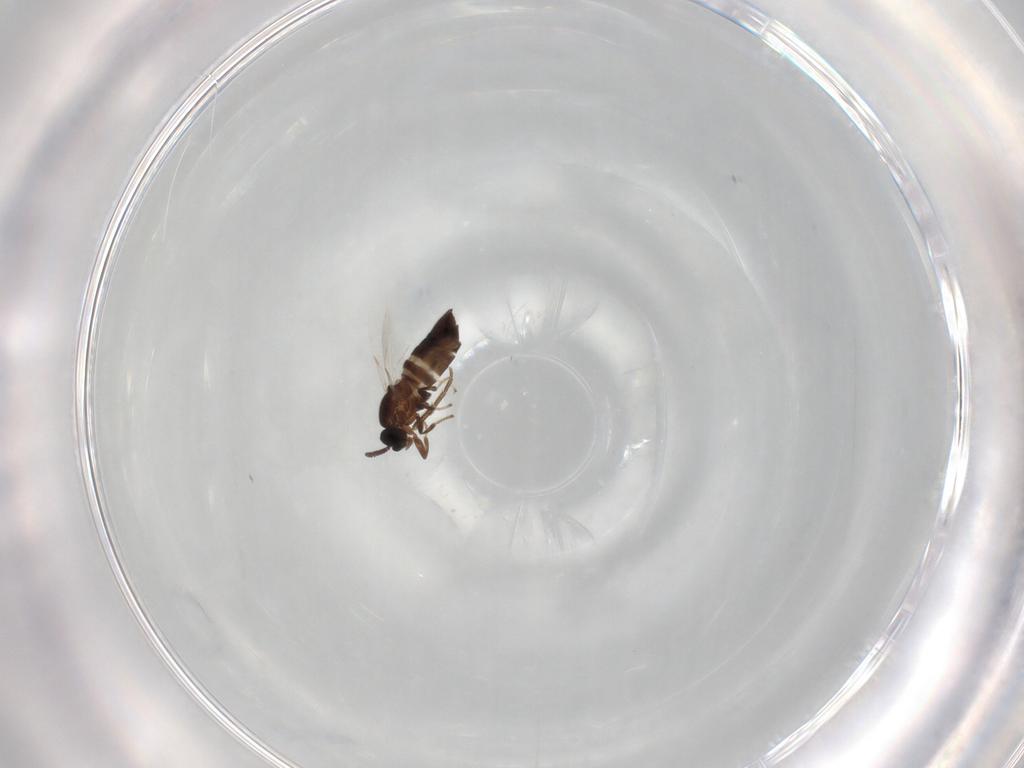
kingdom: Animalia
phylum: Arthropoda
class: Insecta
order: Diptera
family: Scatopsidae
